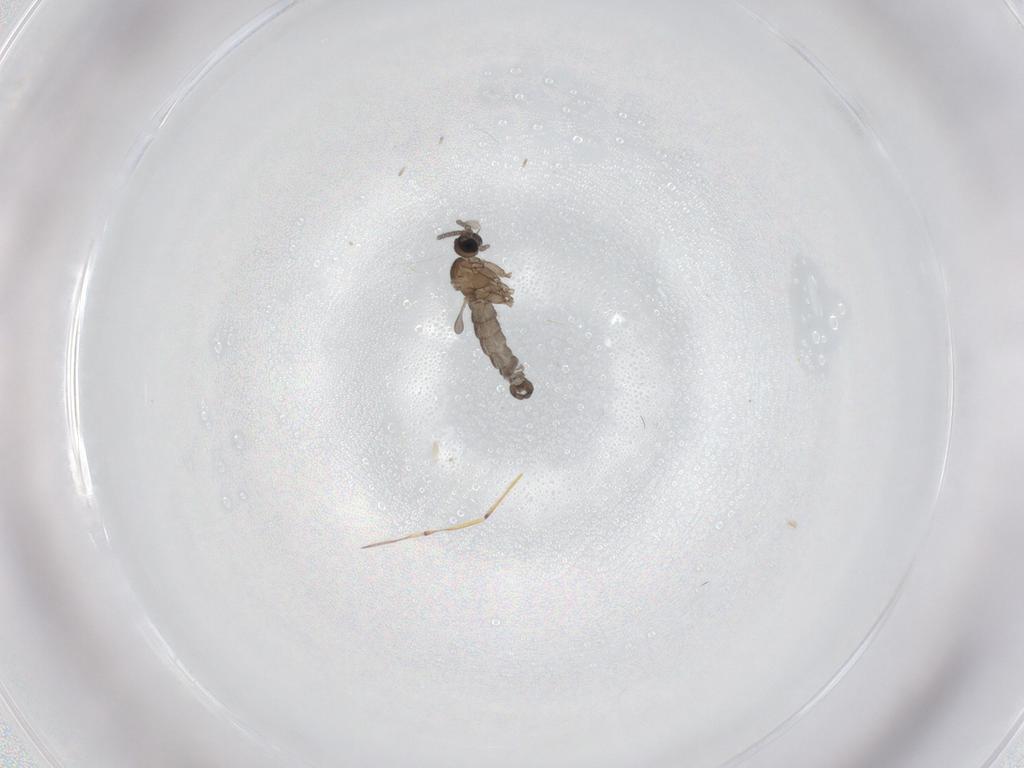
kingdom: Animalia
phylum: Arthropoda
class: Insecta
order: Diptera
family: Sciaridae
